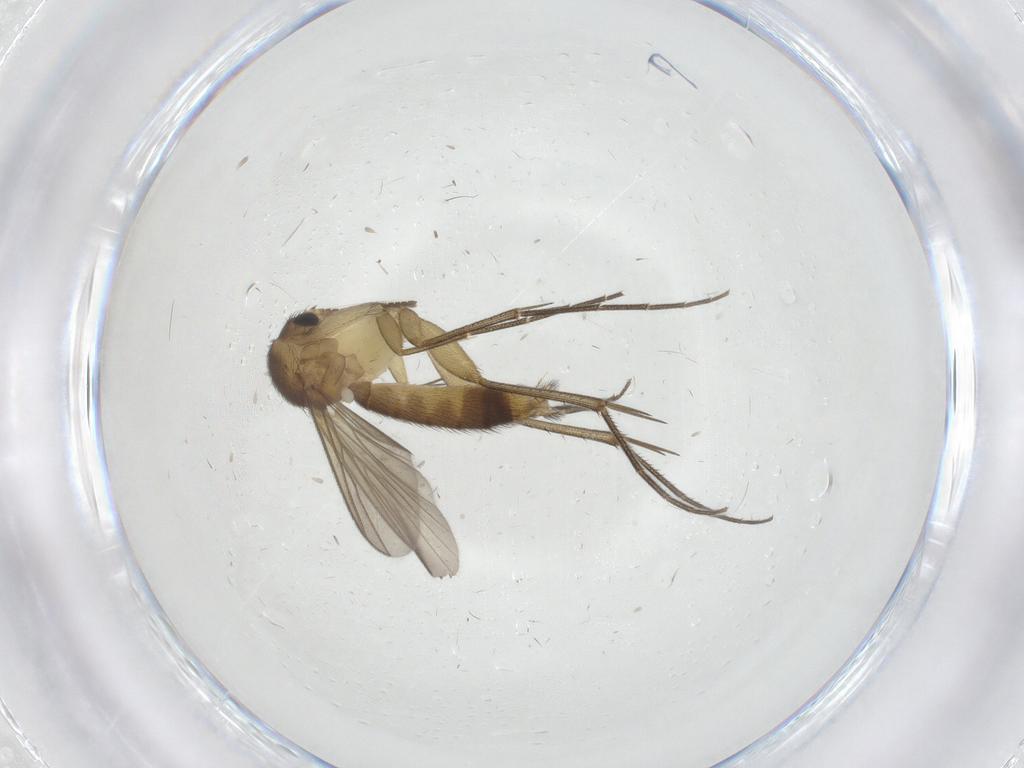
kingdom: Animalia
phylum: Arthropoda
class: Insecta
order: Diptera
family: Mycetophilidae
